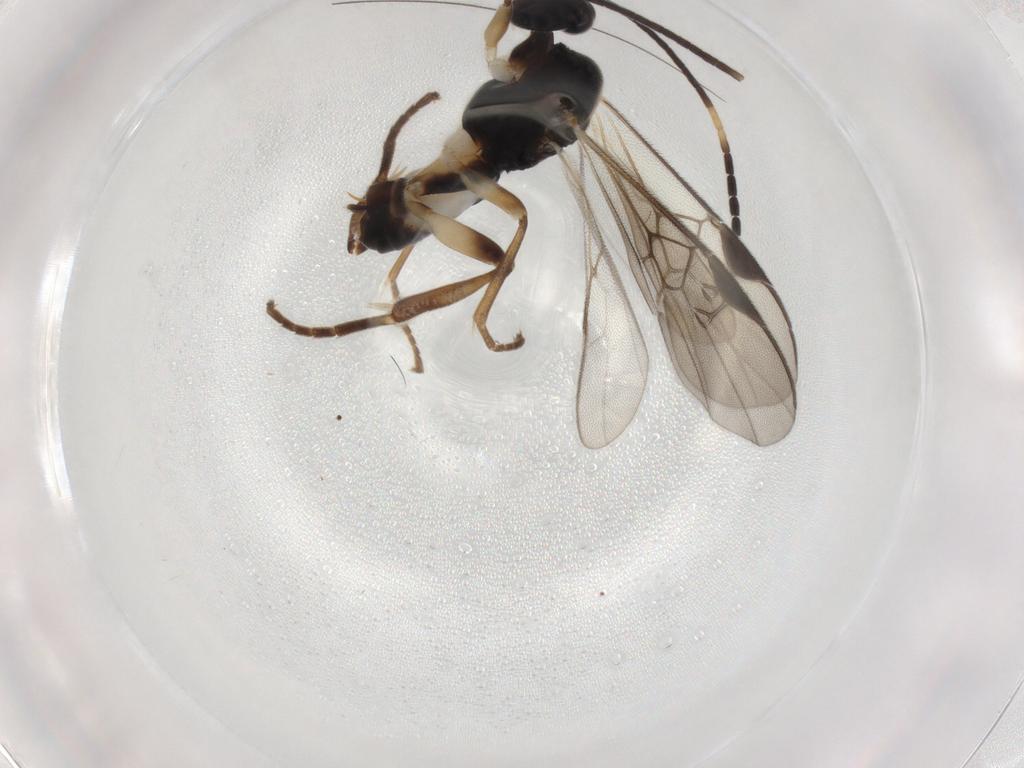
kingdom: Animalia
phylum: Arthropoda
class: Insecta
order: Hymenoptera
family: Braconidae
